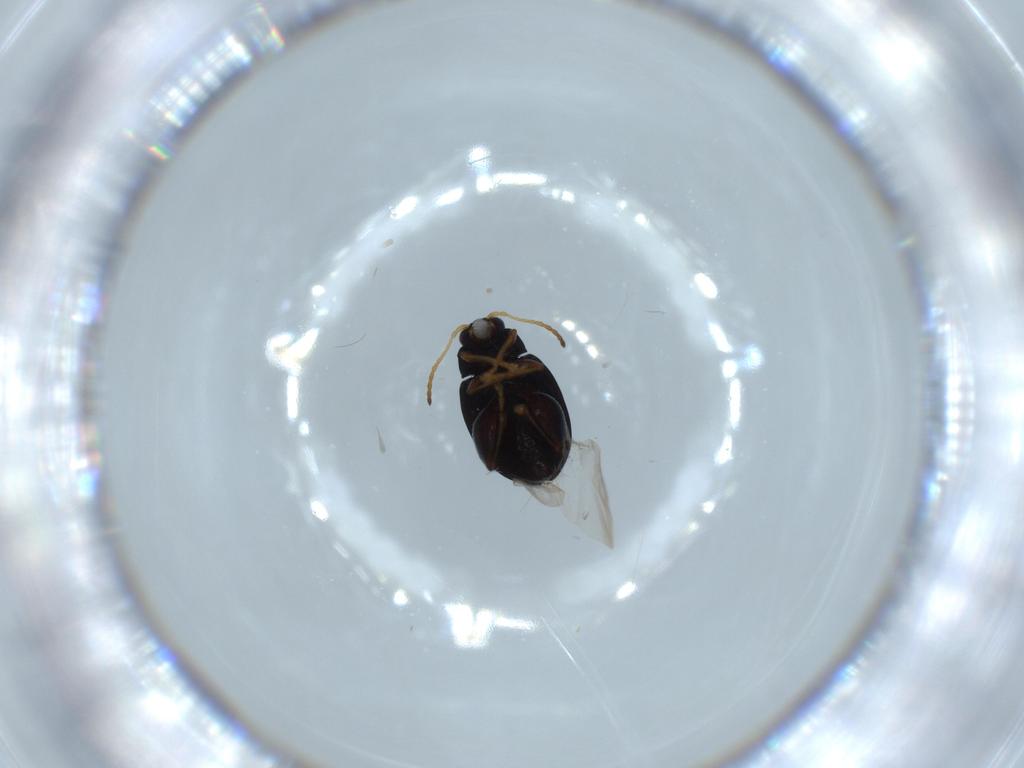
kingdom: Animalia
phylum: Arthropoda
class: Insecta
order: Coleoptera
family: Chrysomelidae
